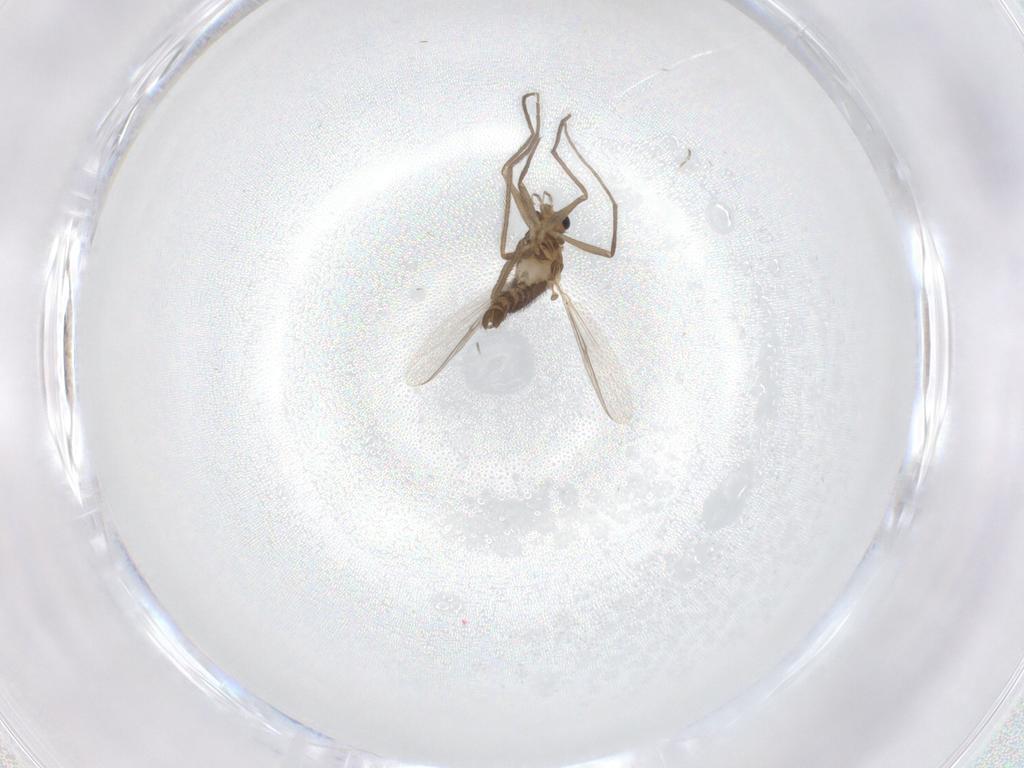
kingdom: Animalia
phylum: Arthropoda
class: Insecta
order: Diptera
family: Chironomidae
